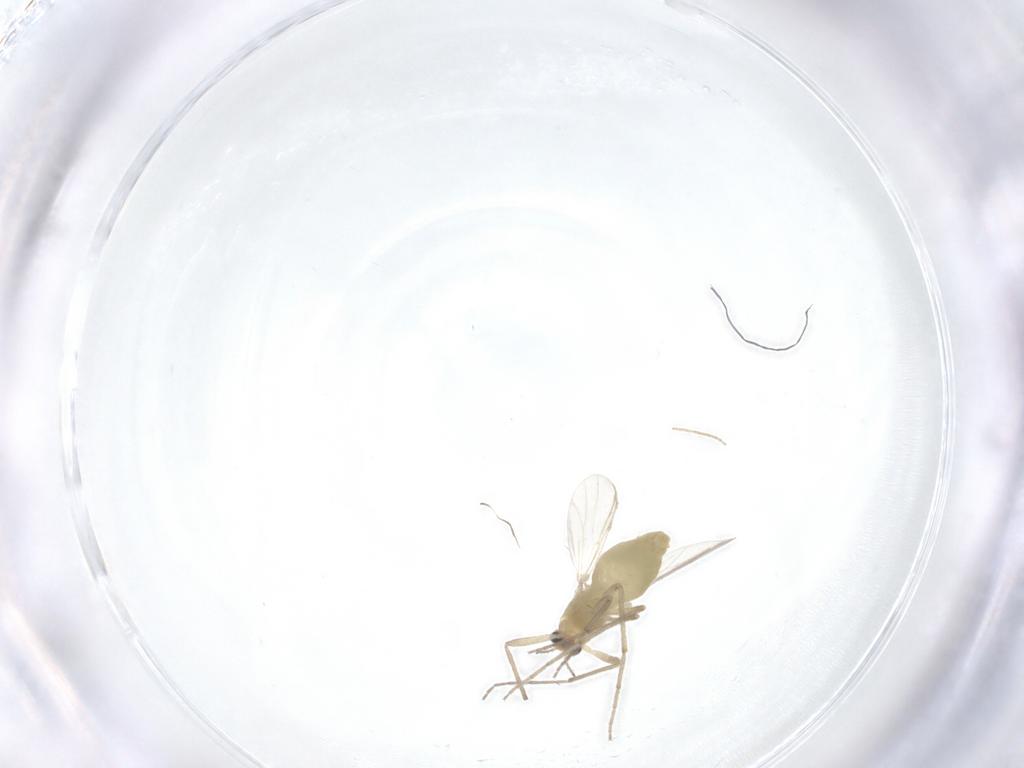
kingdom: Animalia
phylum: Arthropoda
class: Insecta
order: Diptera
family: Chironomidae
